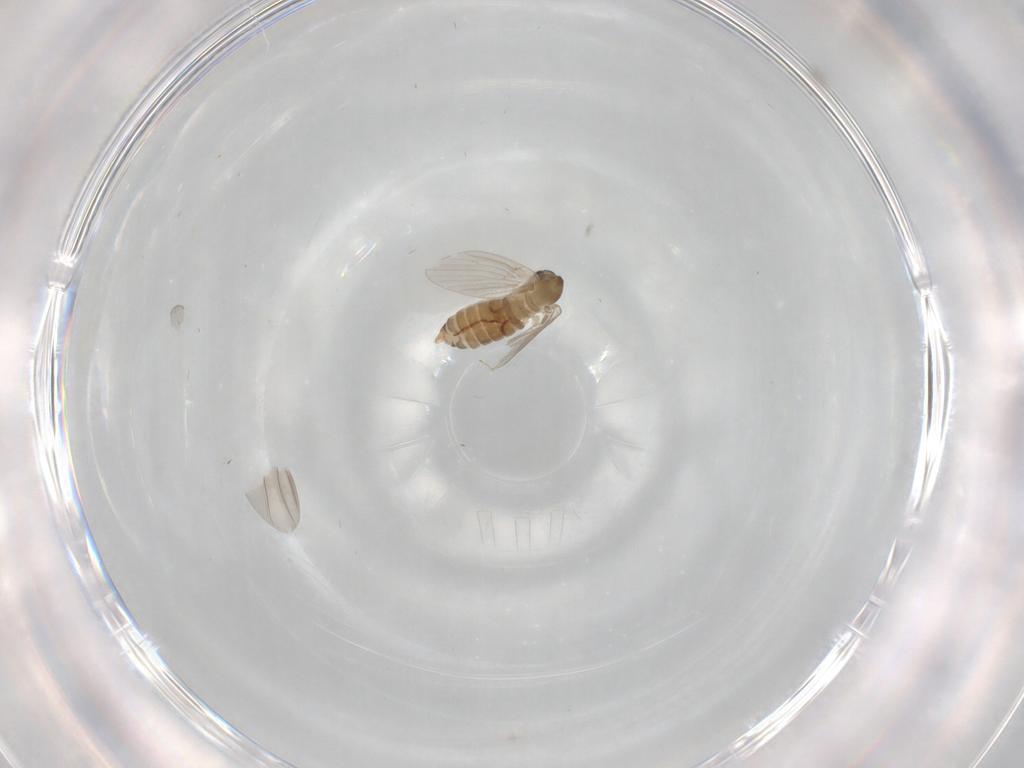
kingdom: Animalia
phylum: Arthropoda
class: Insecta
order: Diptera
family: Psychodidae
